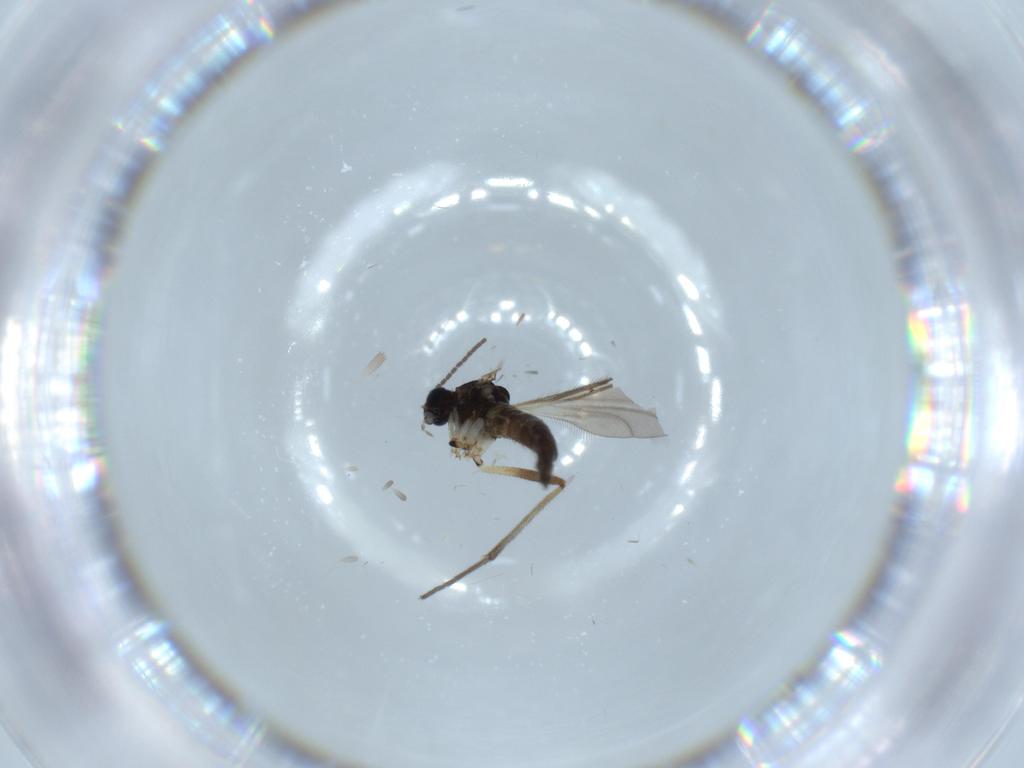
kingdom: Animalia
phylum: Arthropoda
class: Insecta
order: Diptera
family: Sciaridae
